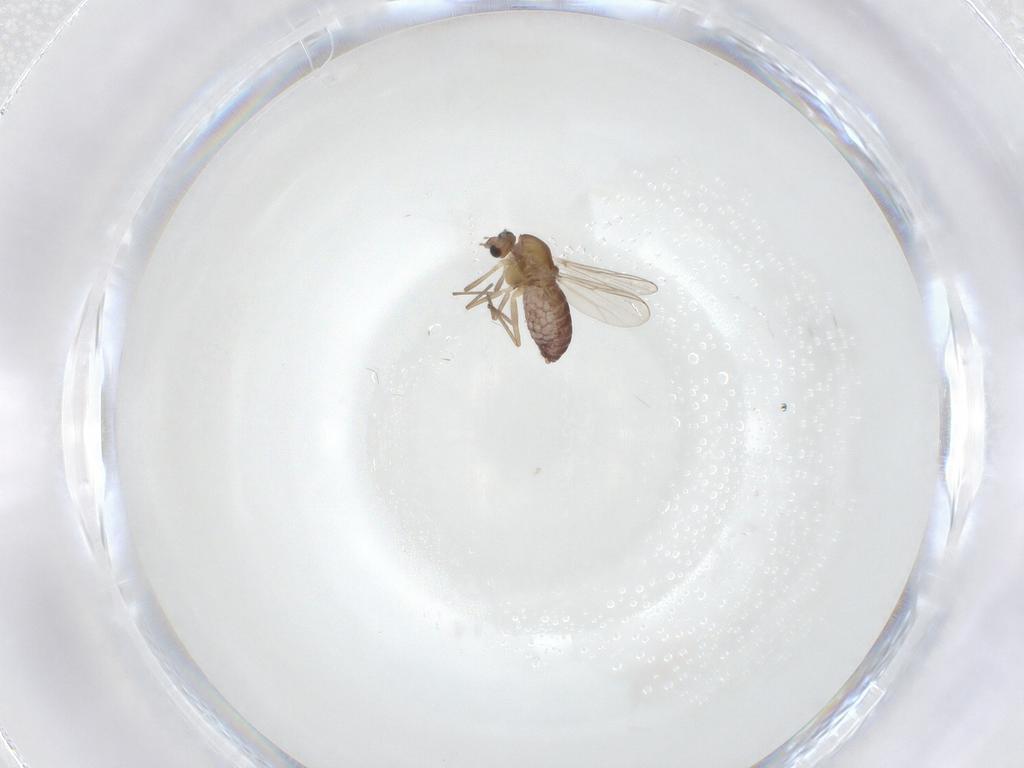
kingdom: Animalia
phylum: Arthropoda
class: Insecta
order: Diptera
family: Chironomidae
